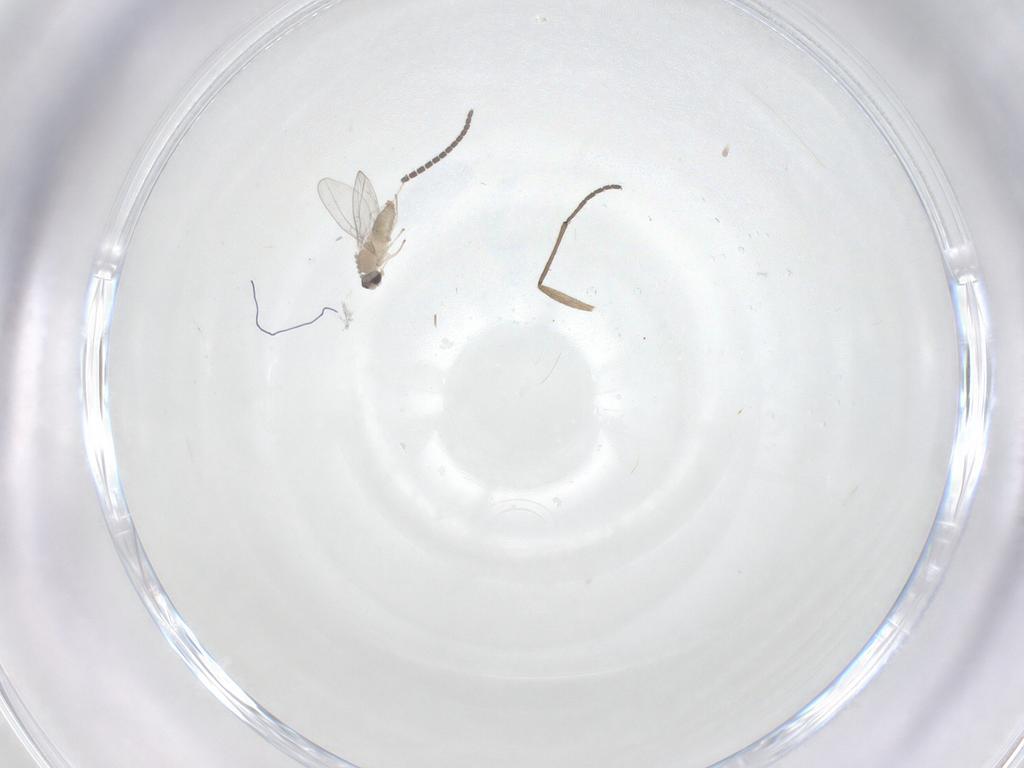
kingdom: Animalia
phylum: Arthropoda
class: Insecta
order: Diptera
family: Sciaridae
